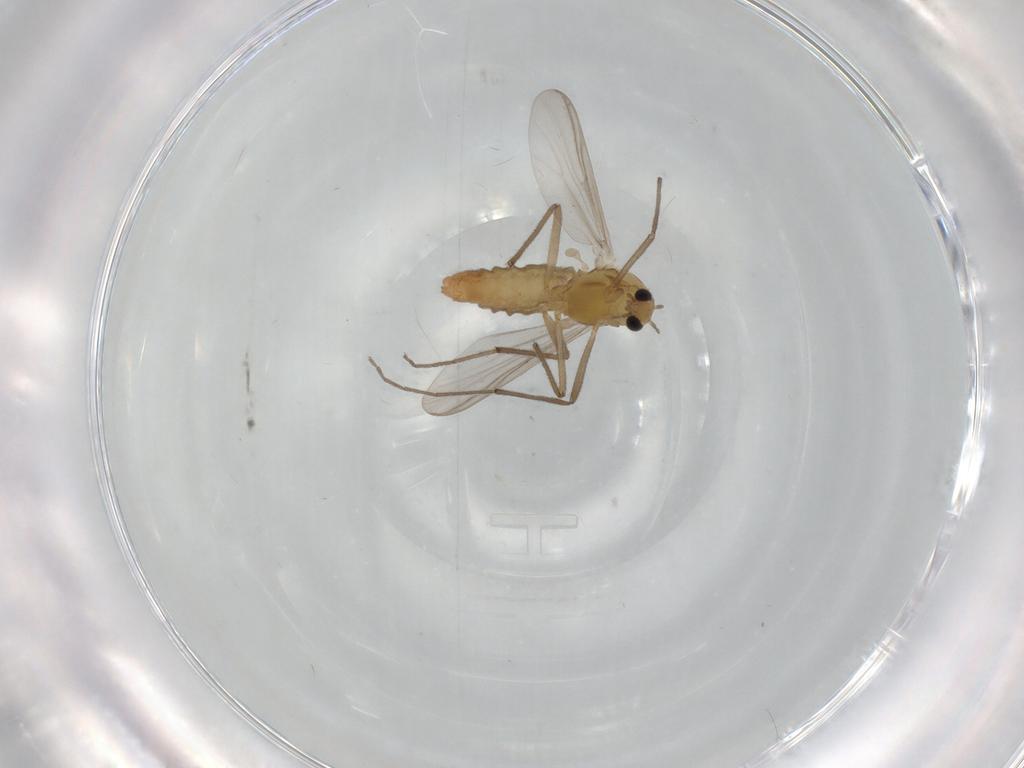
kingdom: Animalia
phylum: Arthropoda
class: Insecta
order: Diptera
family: Chironomidae
